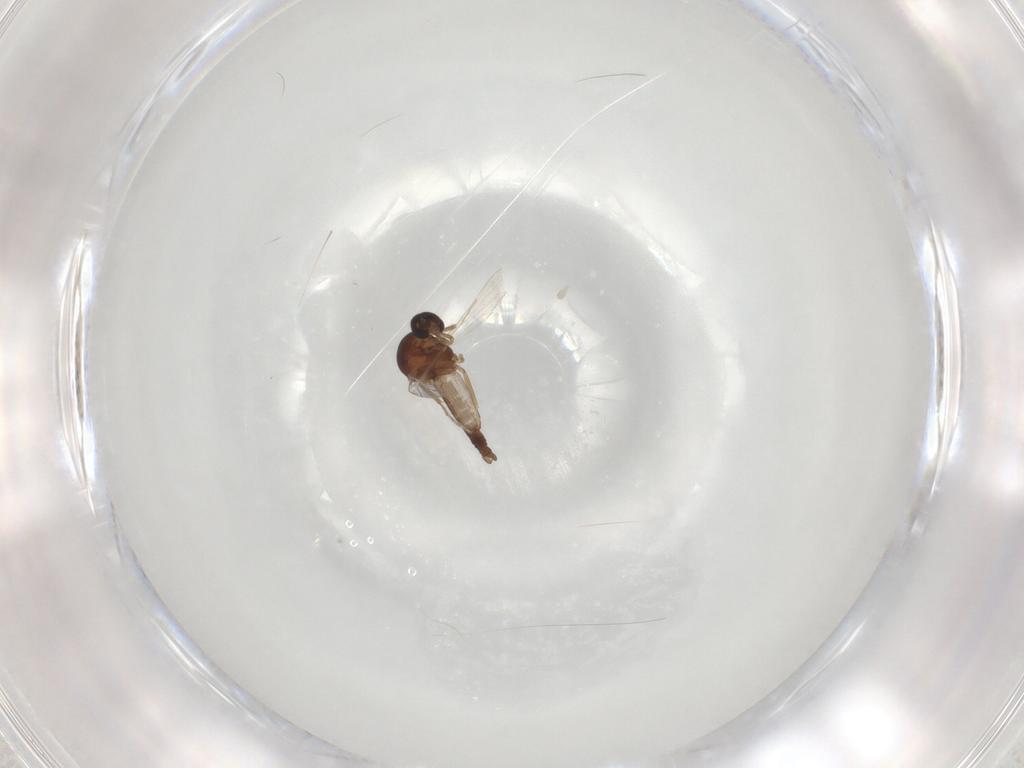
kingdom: Animalia
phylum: Arthropoda
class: Insecta
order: Diptera
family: Ceratopogonidae
